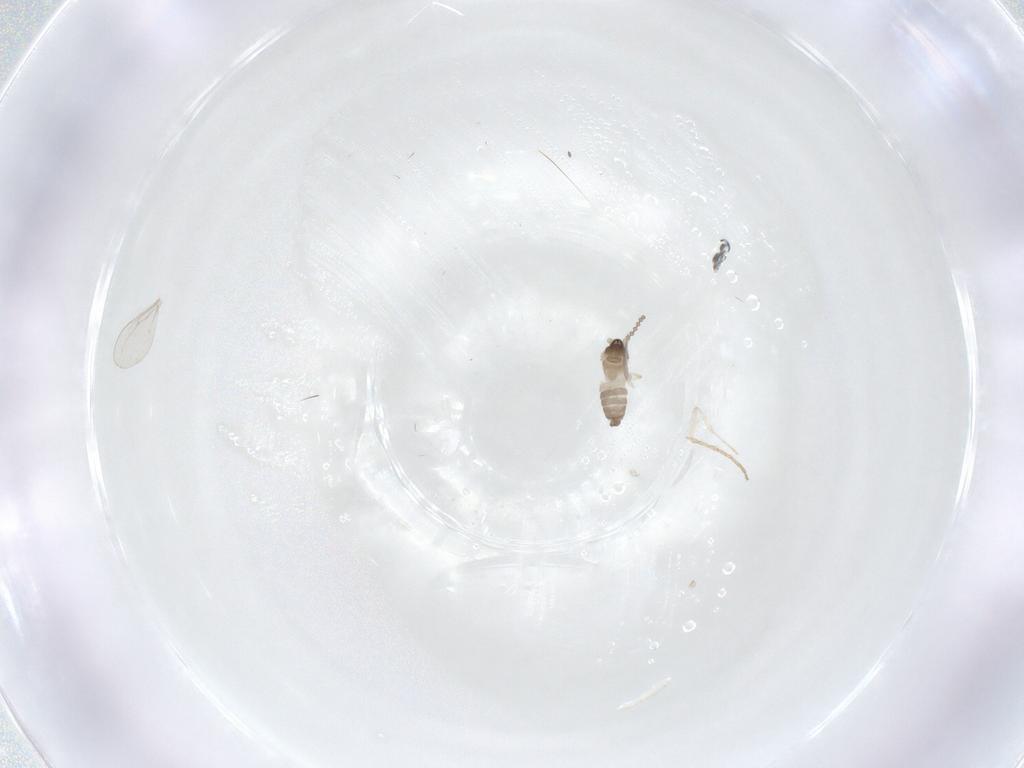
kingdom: Animalia
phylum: Arthropoda
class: Insecta
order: Diptera
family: Cecidomyiidae
